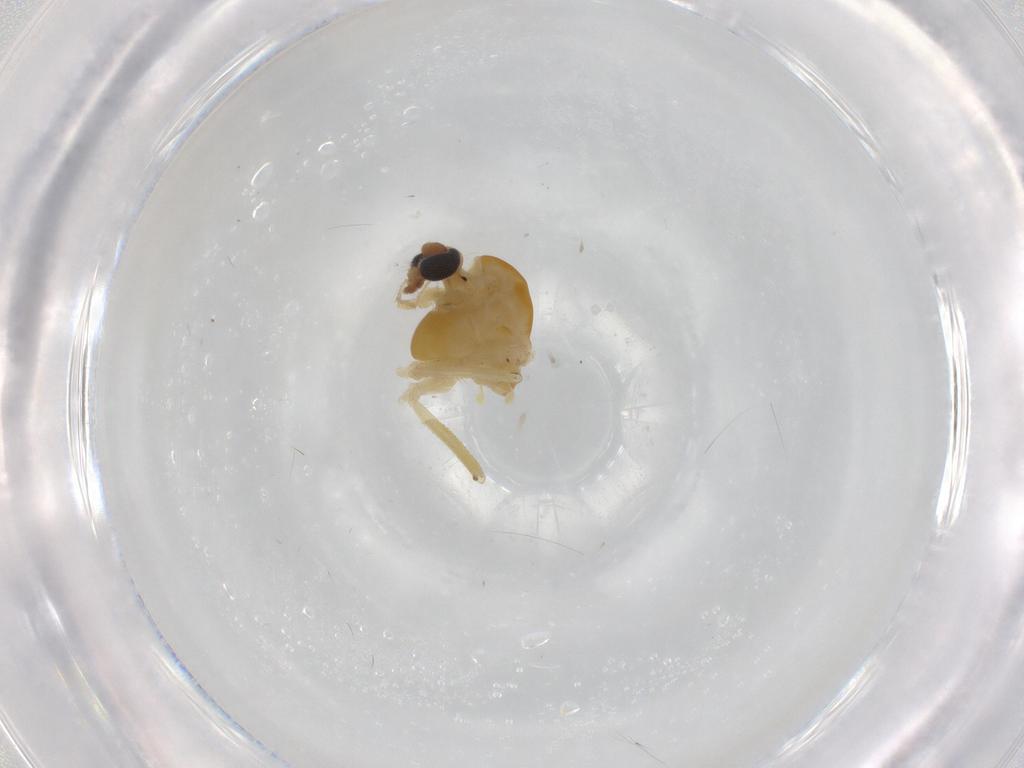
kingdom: Animalia
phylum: Arthropoda
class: Insecta
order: Diptera
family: Chironomidae
